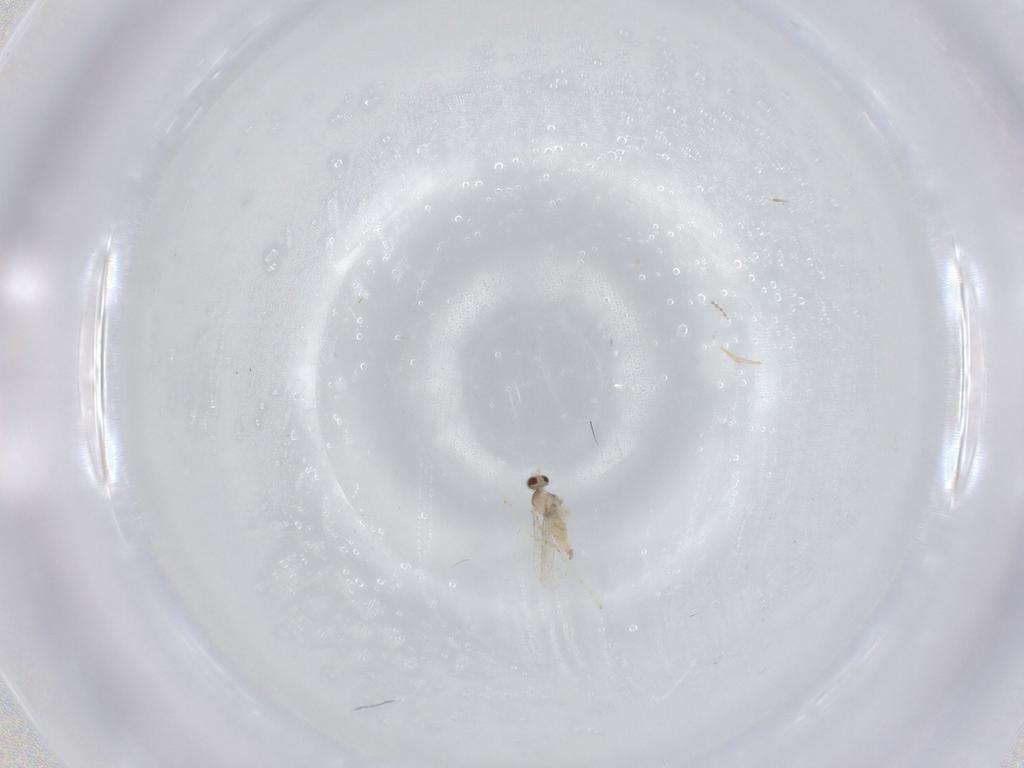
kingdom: Animalia
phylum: Arthropoda
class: Insecta
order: Diptera
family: Cecidomyiidae
